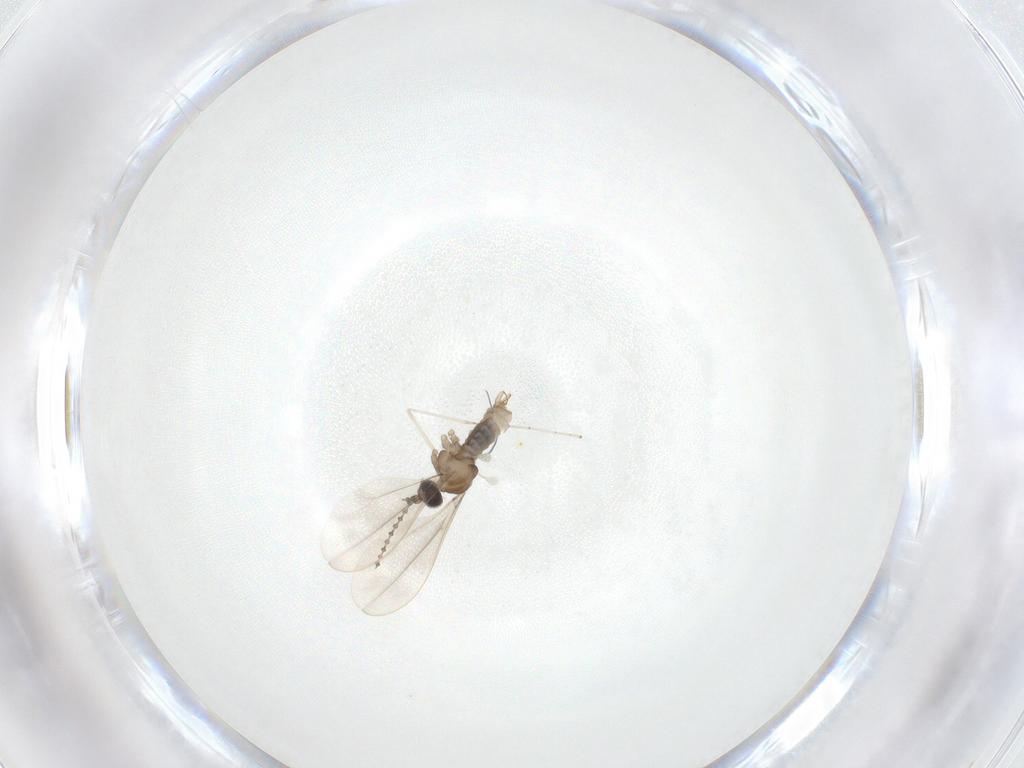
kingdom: Animalia
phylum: Arthropoda
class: Insecta
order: Diptera
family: Cecidomyiidae
